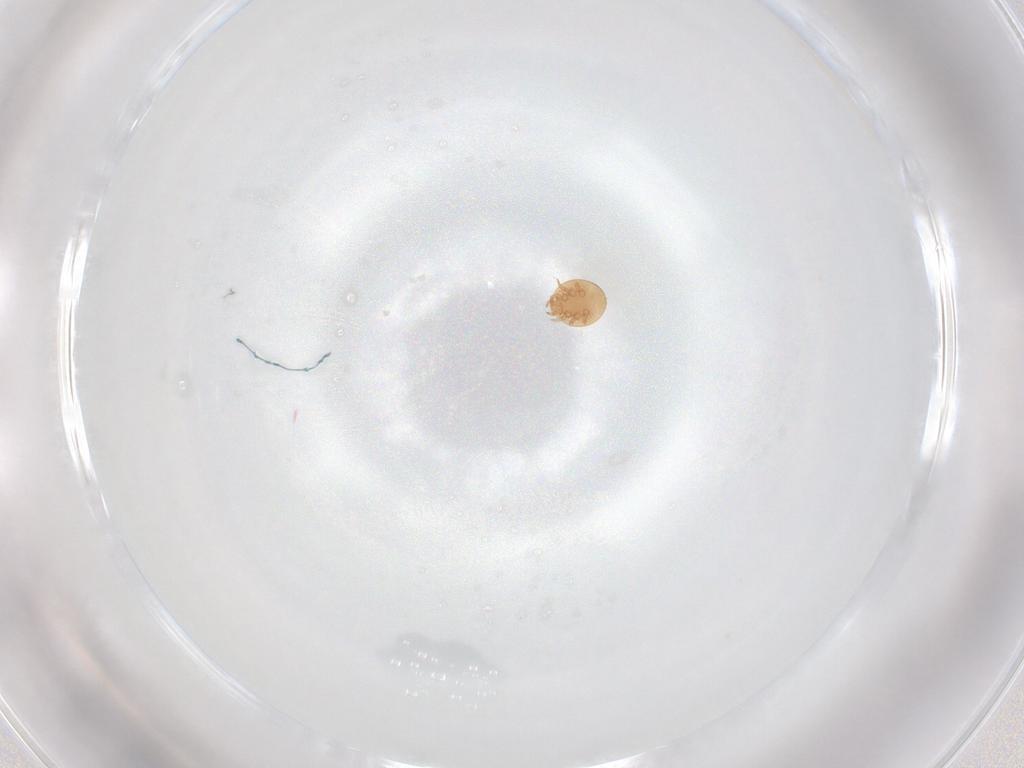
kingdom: Animalia
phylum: Arthropoda
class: Arachnida
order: Mesostigmata
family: Trematuridae
